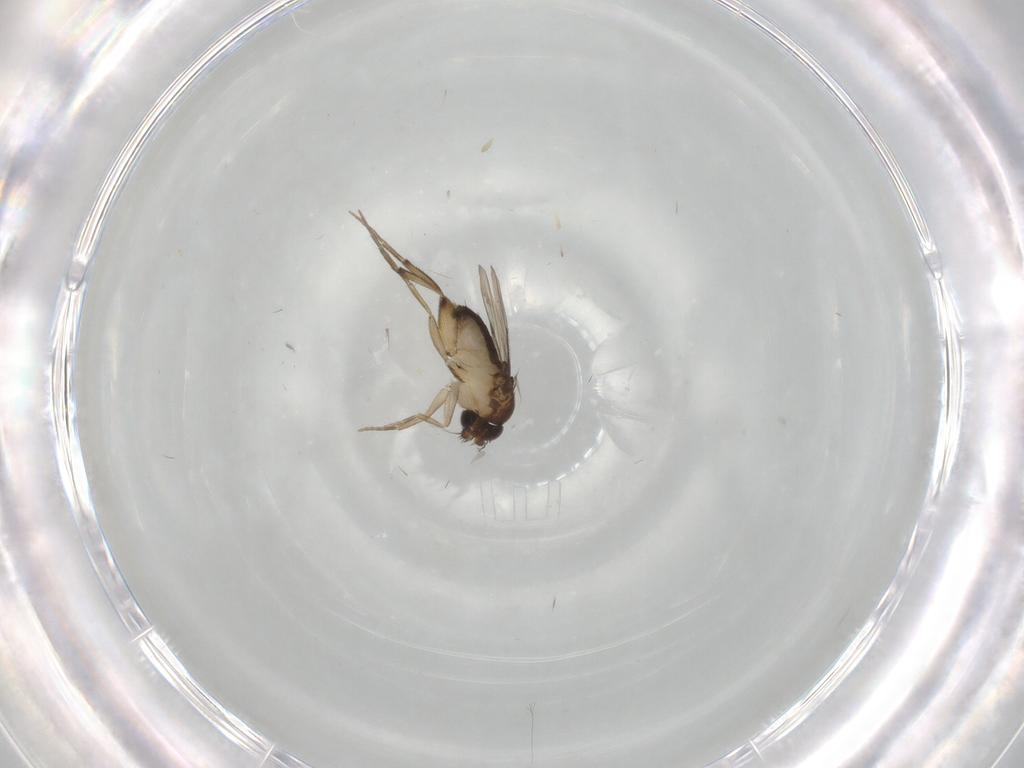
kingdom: Animalia
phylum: Arthropoda
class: Insecta
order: Diptera
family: Phoridae
